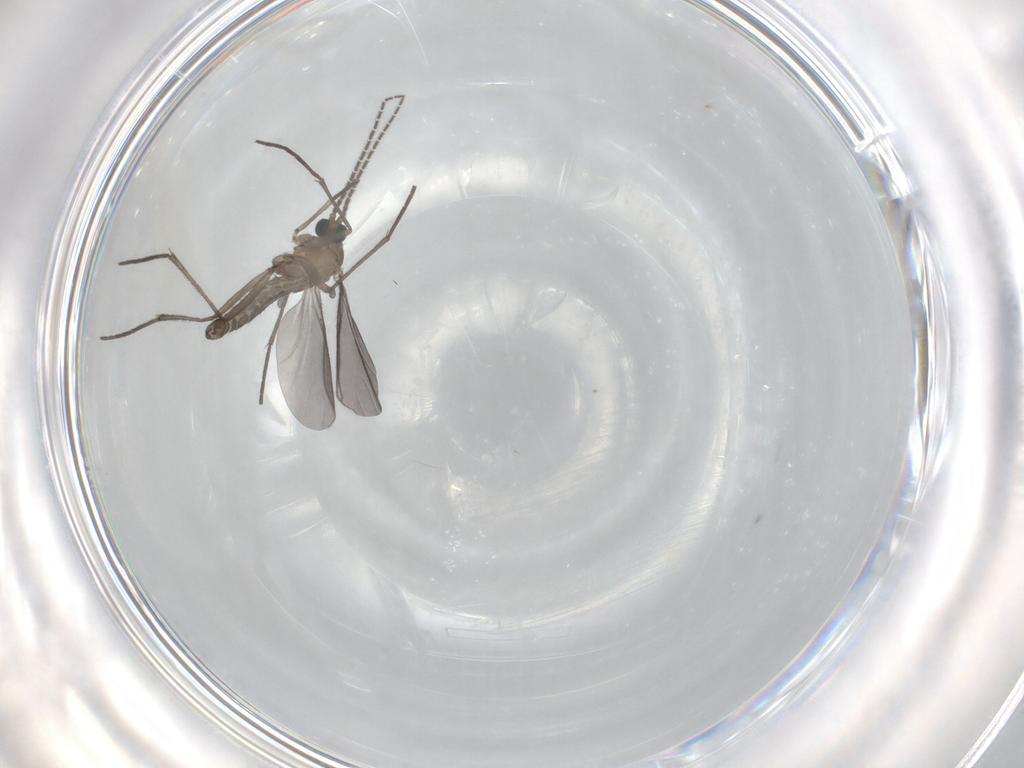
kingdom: Animalia
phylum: Arthropoda
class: Insecta
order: Diptera
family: Sciaridae
